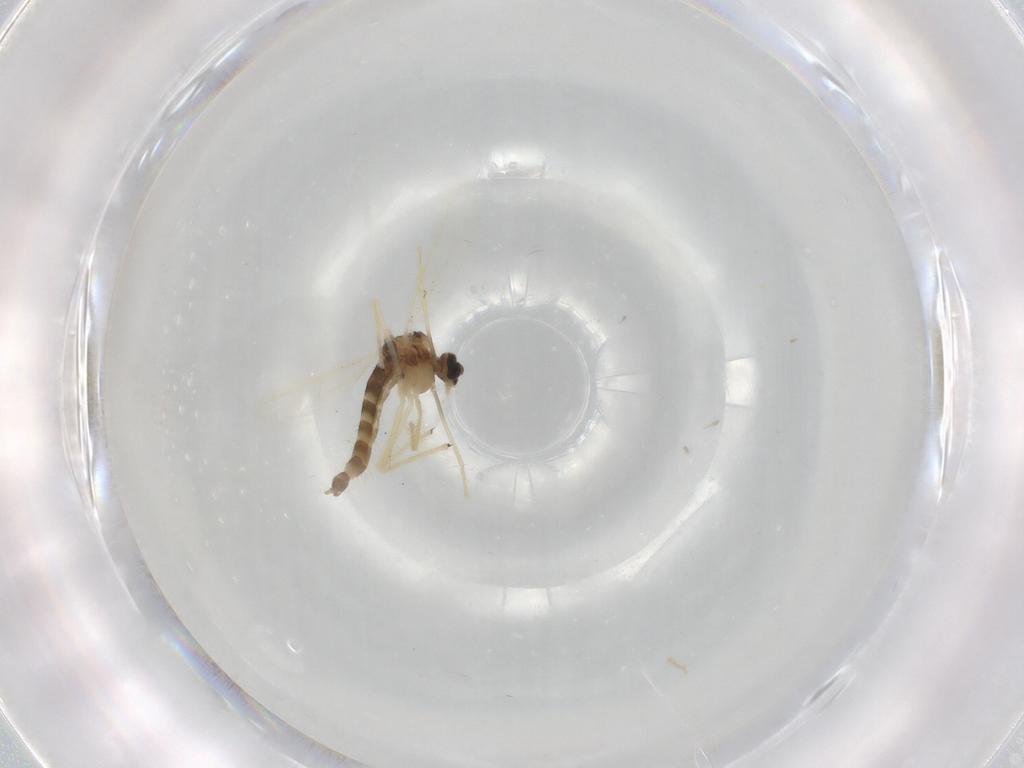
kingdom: Animalia
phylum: Arthropoda
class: Insecta
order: Diptera
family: Chironomidae
